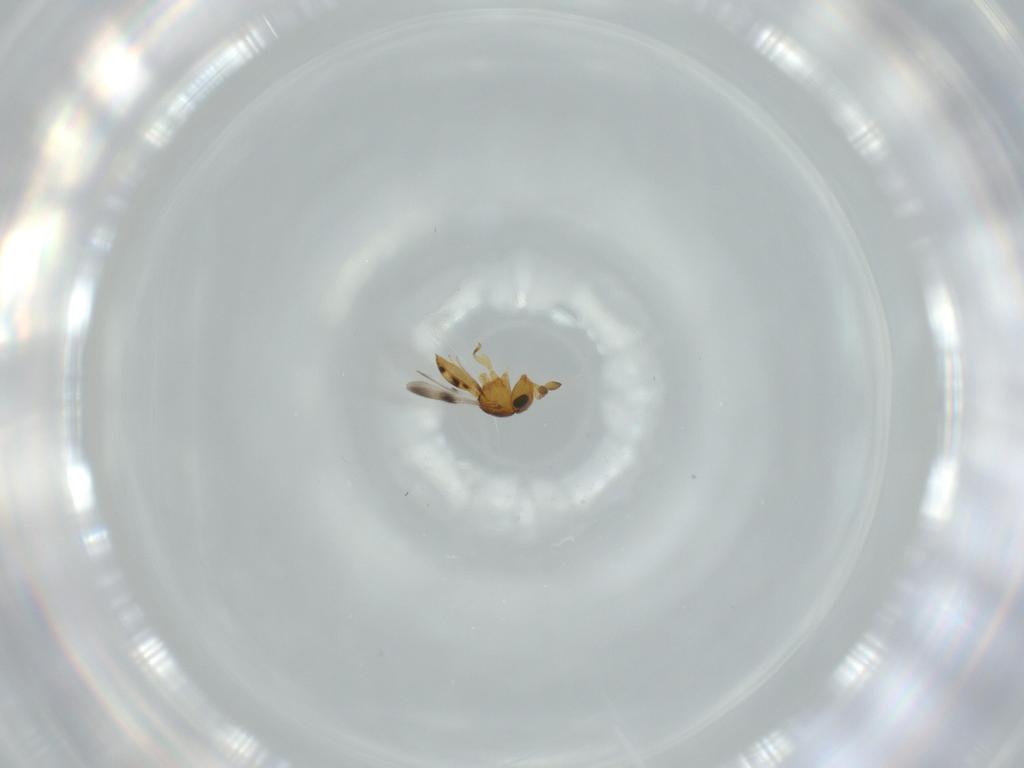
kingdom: Animalia
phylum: Arthropoda
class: Insecta
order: Hymenoptera
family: Scelionidae
